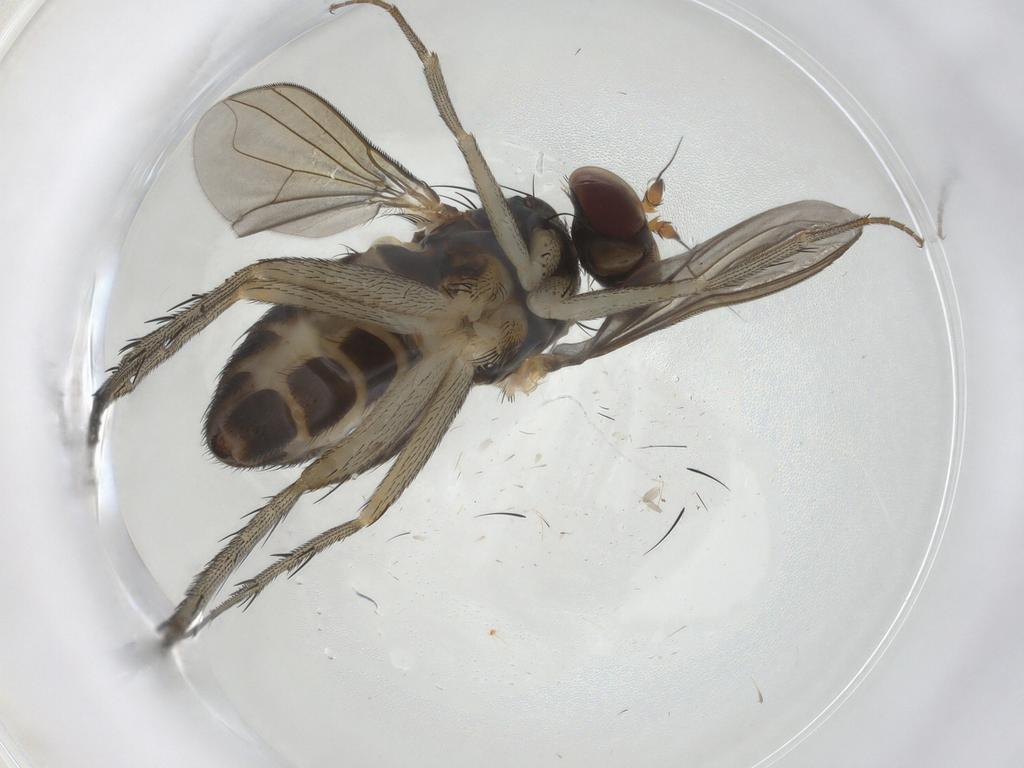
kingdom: Animalia
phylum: Arthropoda
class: Insecta
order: Diptera
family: Dolichopodidae
